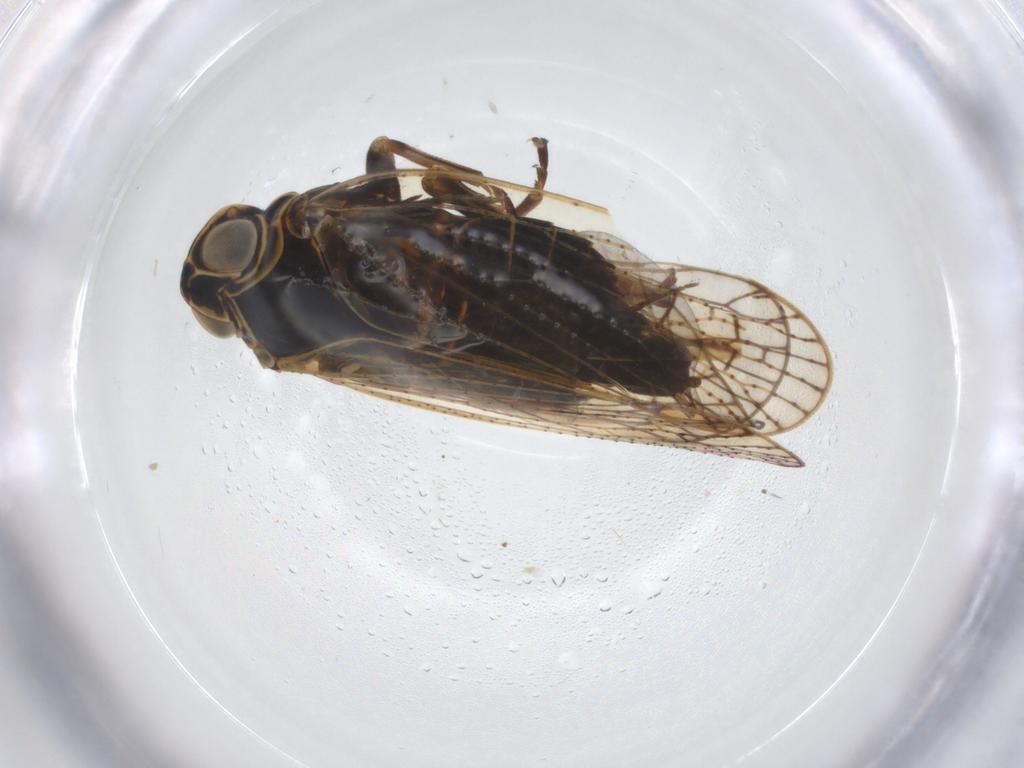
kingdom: Animalia
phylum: Arthropoda
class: Insecta
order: Hemiptera
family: Cixiidae
